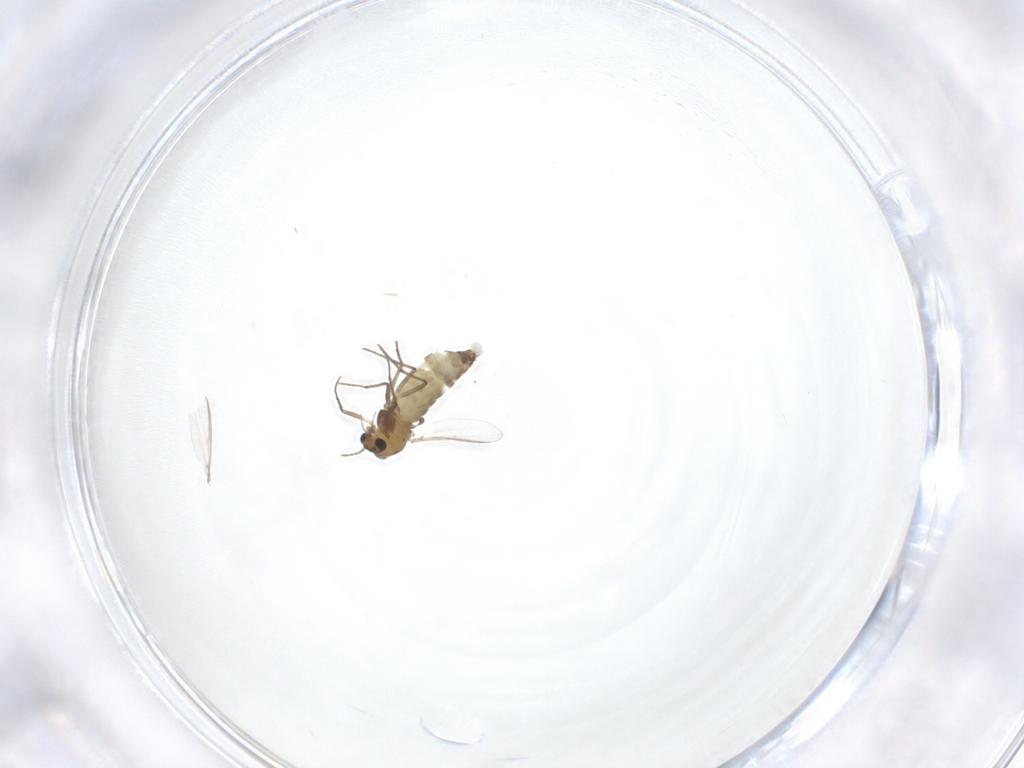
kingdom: Animalia
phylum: Arthropoda
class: Insecta
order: Diptera
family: Chironomidae
